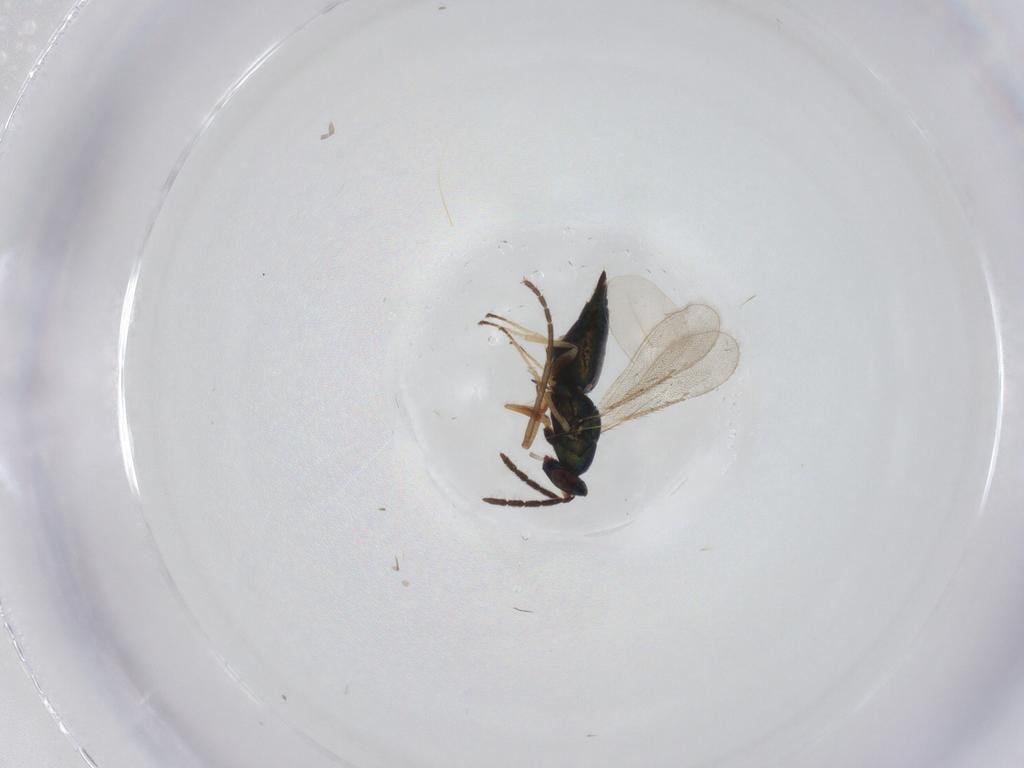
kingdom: Animalia
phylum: Arthropoda
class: Insecta
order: Hymenoptera
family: Eulophidae
